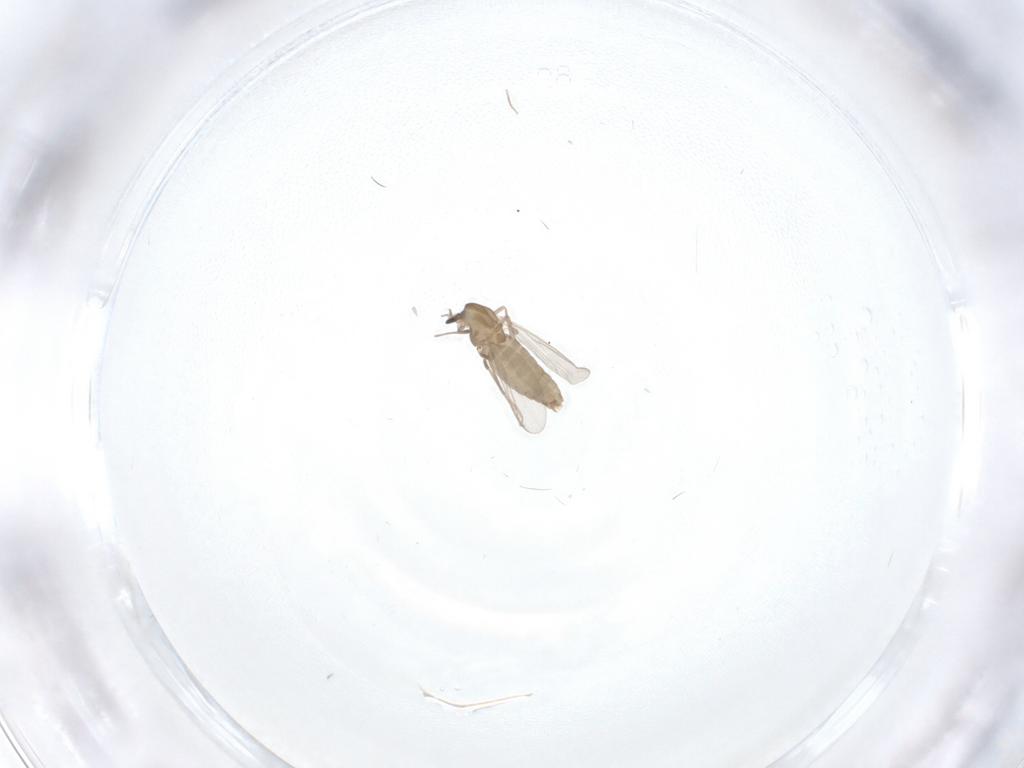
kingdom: Animalia
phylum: Arthropoda
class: Insecta
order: Diptera
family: Chironomidae
